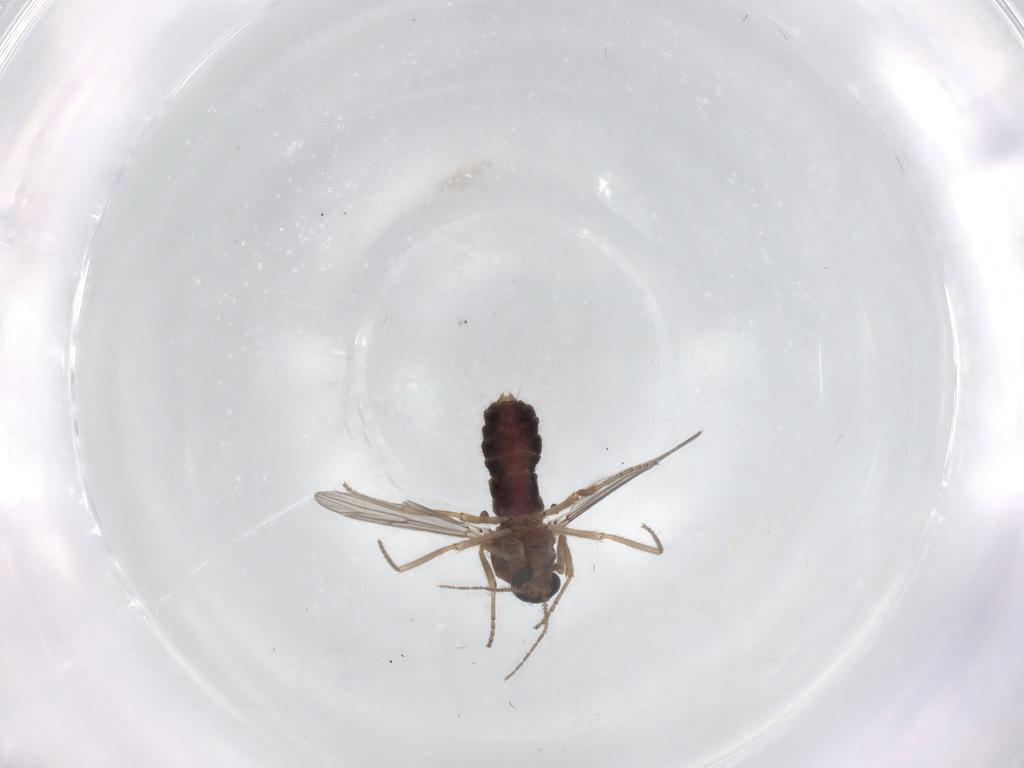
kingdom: Animalia
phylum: Arthropoda
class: Insecta
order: Diptera
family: Ceratopogonidae
